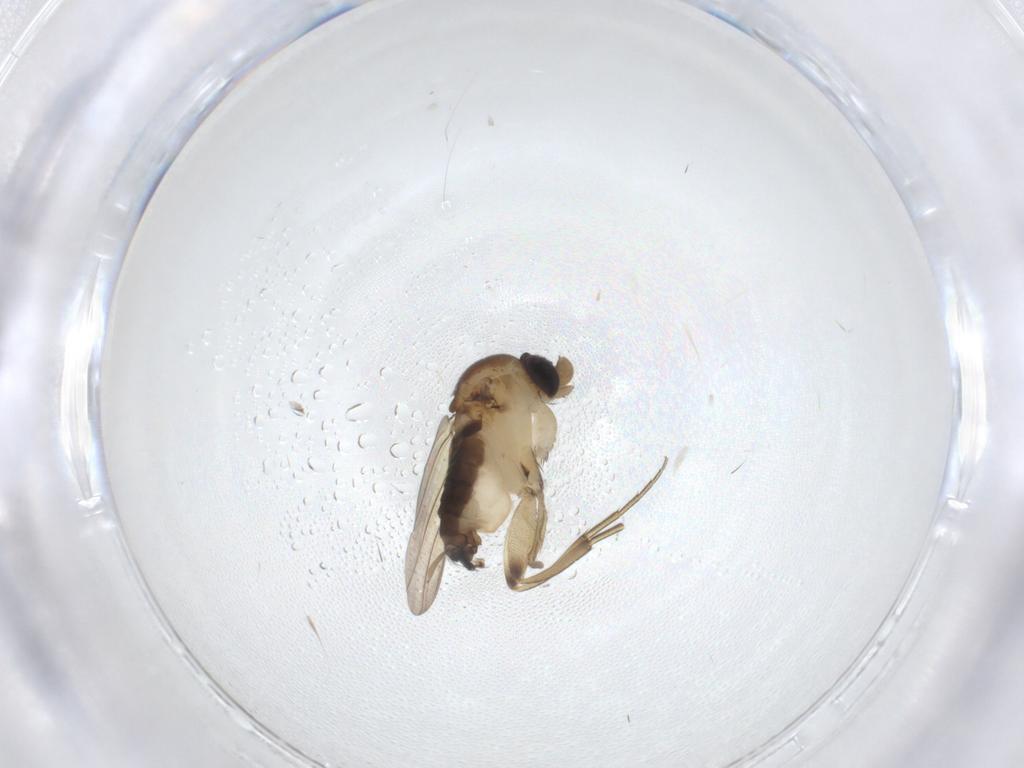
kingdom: Animalia
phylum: Arthropoda
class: Insecta
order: Diptera
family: Phoridae
